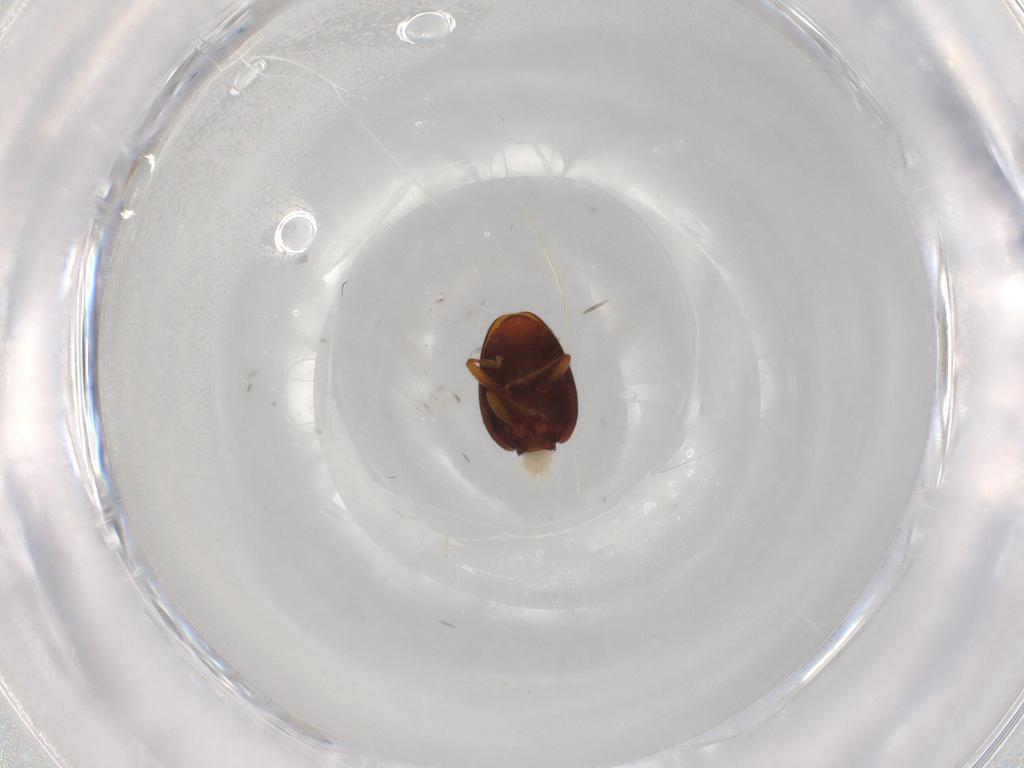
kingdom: Animalia
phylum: Arthropoda
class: Insecta
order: Coleoptera
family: Latridiidae
